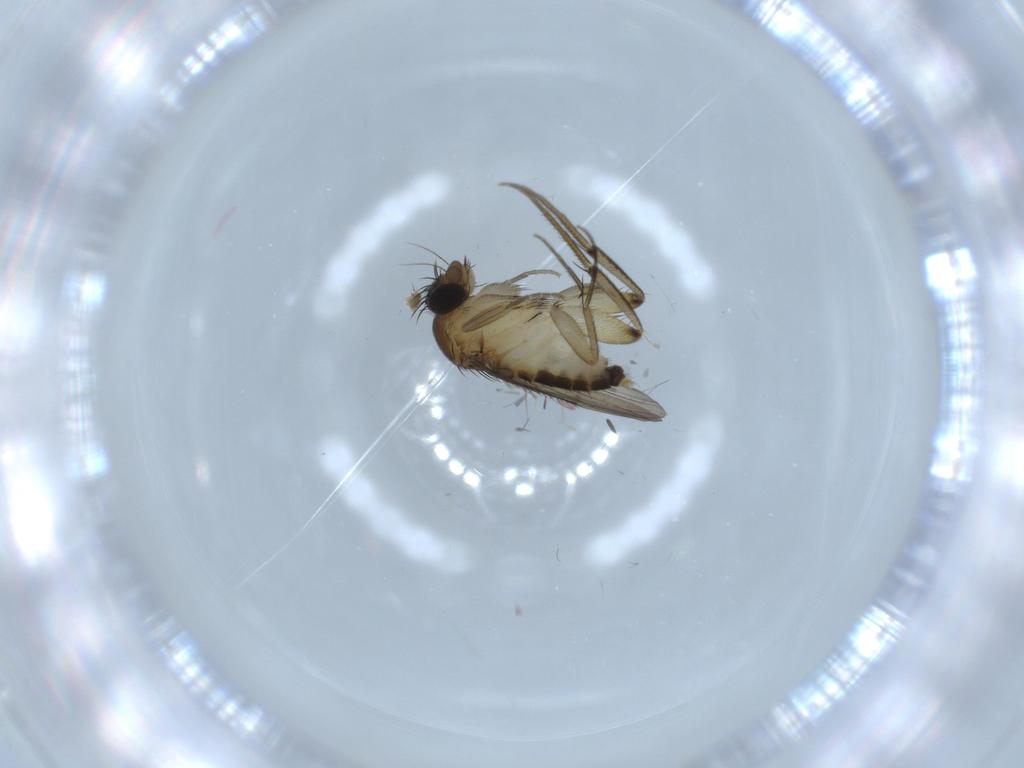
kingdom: Animalia
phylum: Arthropoda
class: Insecta
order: Diptera
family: Phoridae
